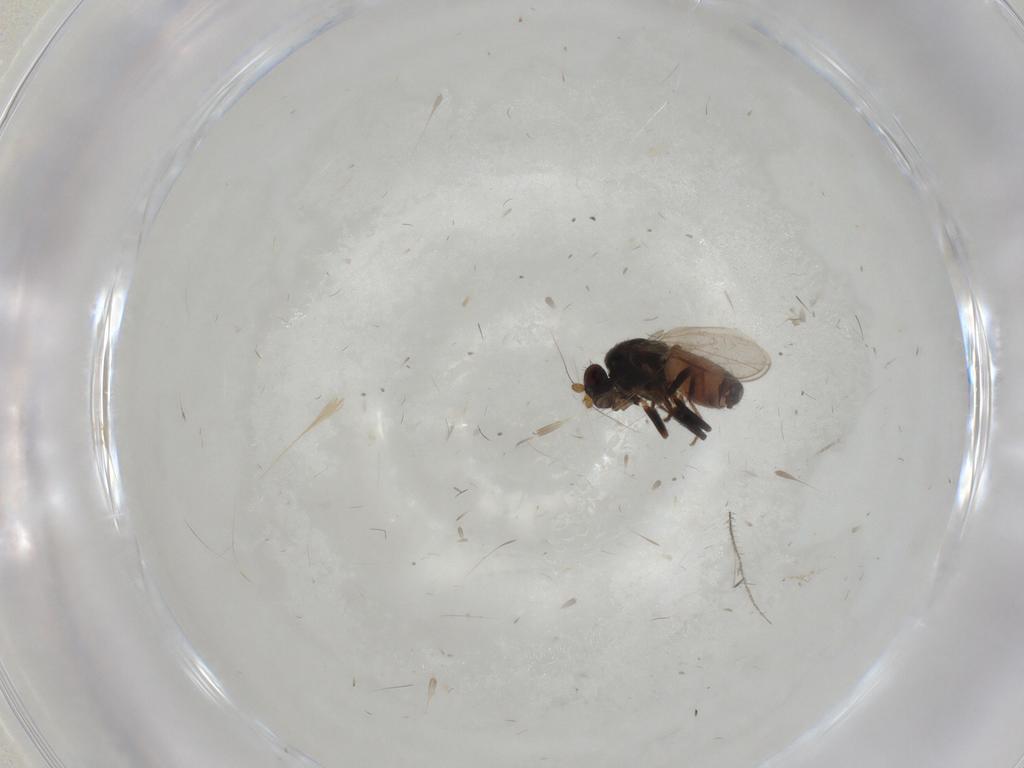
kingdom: Animalia
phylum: Arthropoda
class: Insecta
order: Diptera
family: Sphaeroceridae
